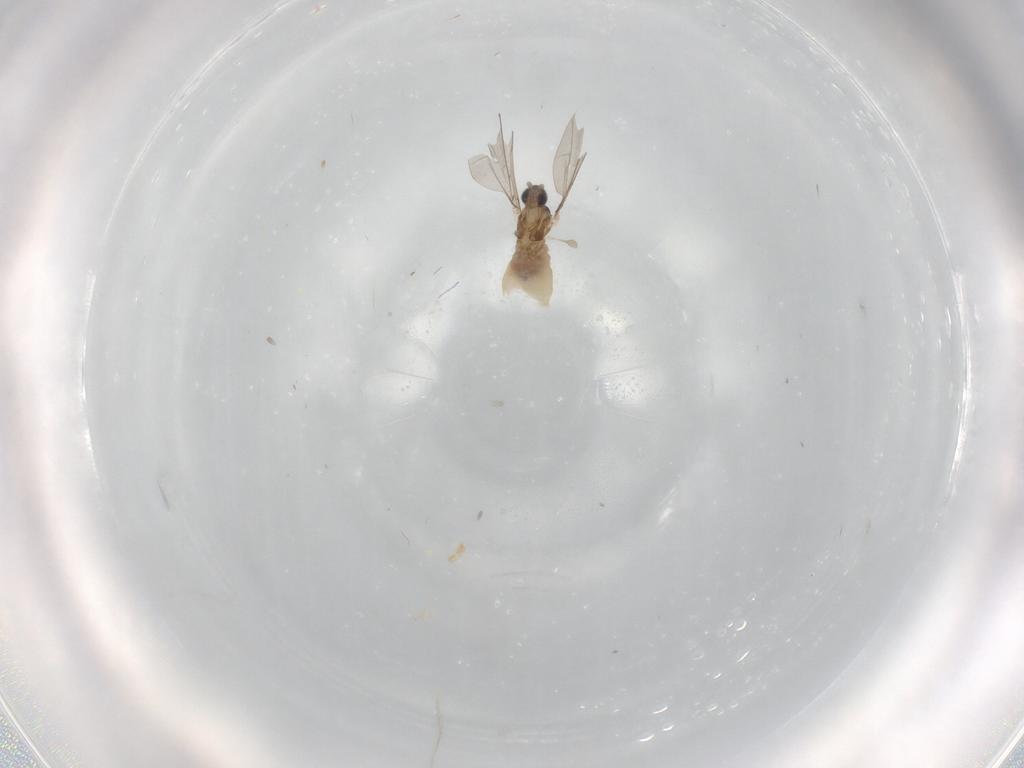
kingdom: Animalia
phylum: Arthropoda
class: Insecta
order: Diptera
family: Cecidomyiidae
